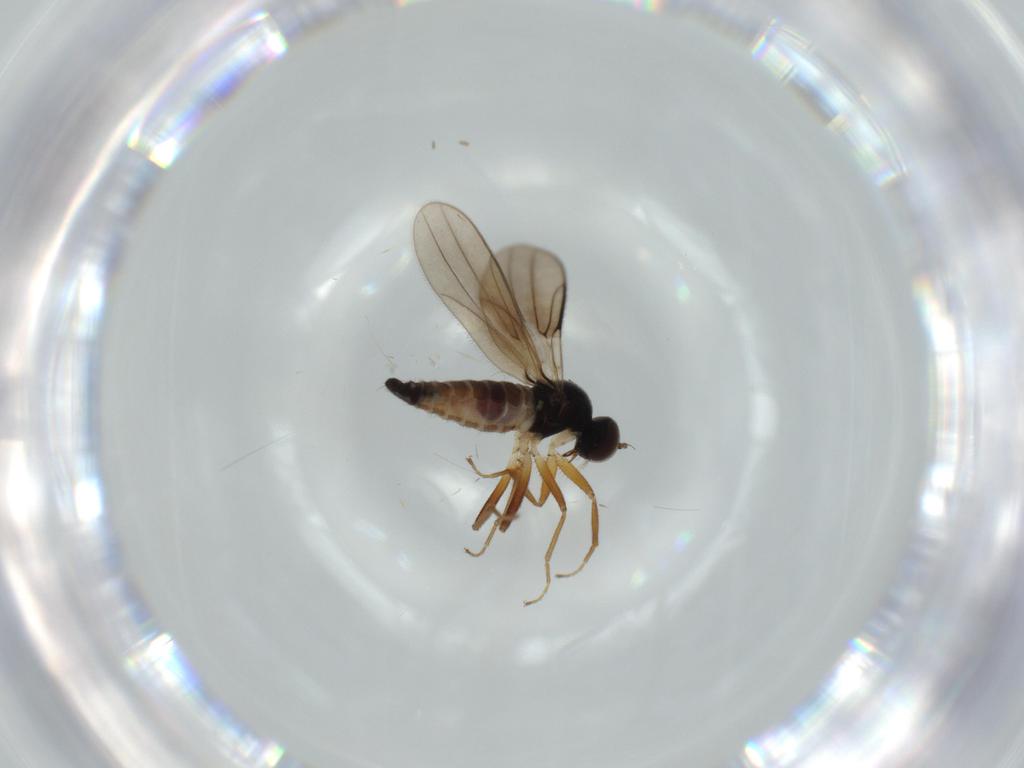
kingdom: Animalia
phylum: Arthropoda
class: Insecta
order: Diptera
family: Hybotidae
